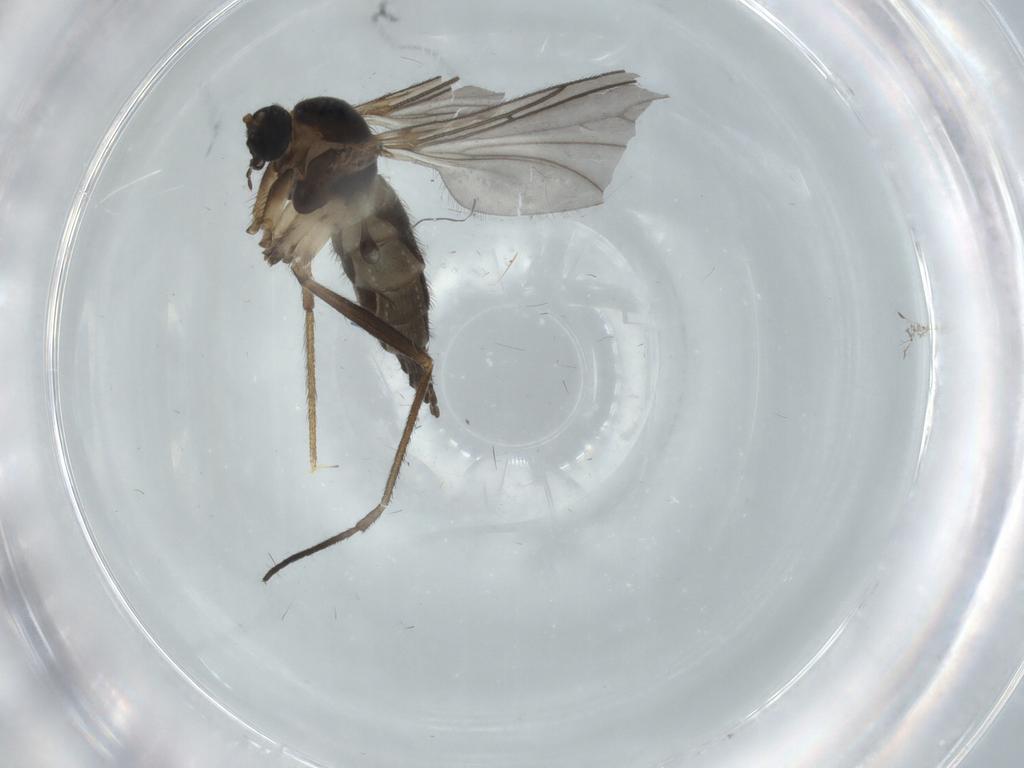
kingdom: Animalia
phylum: Arthropoda
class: Insecta
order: Diptera
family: Sciaridae
